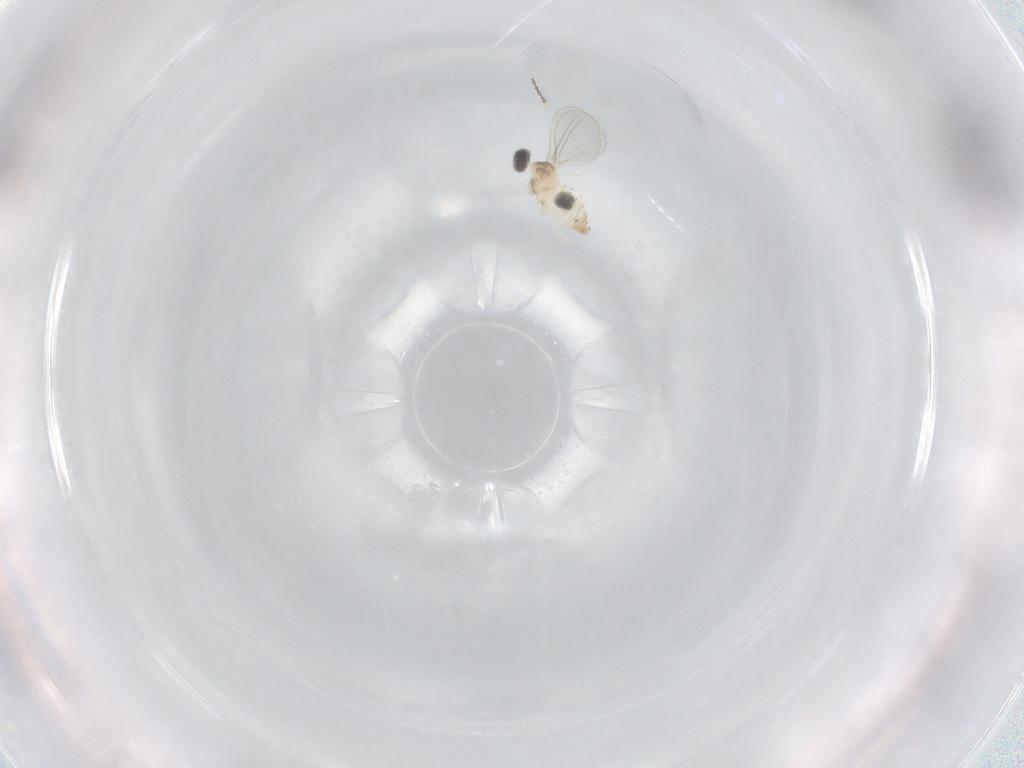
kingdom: Animalia
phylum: Arthropoda
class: Insecta
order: Diptera
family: Cecidomyiidae
